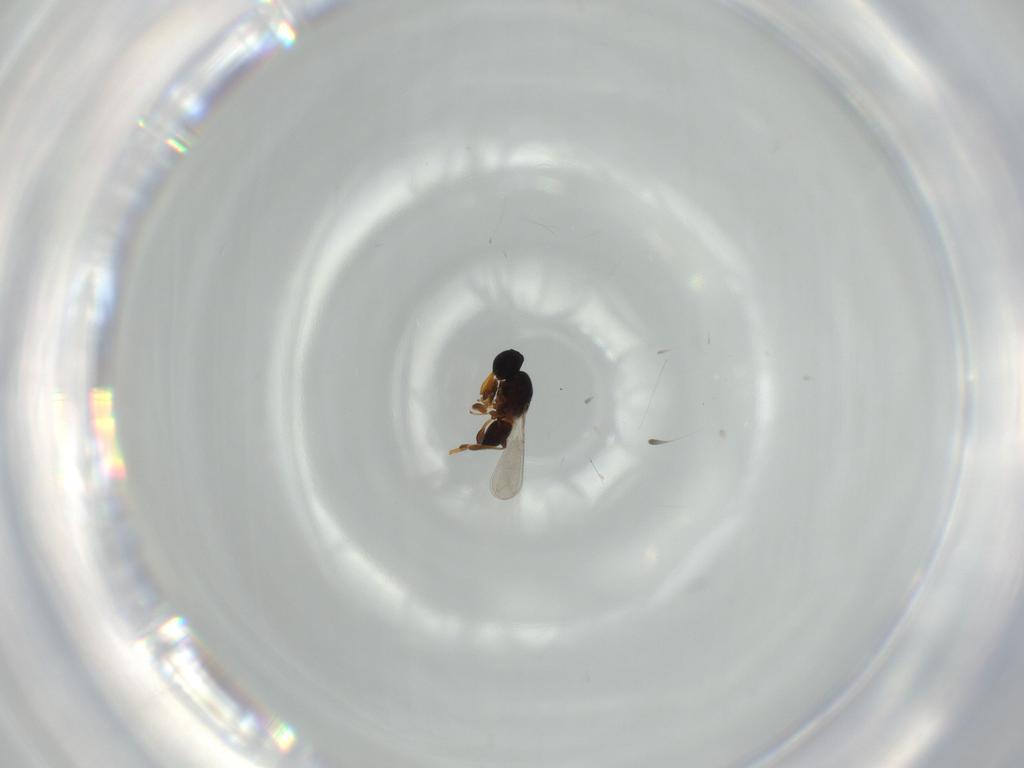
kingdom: Animalia
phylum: Arthropoda
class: Insecta
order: Hymenoptera
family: Platygastridae
